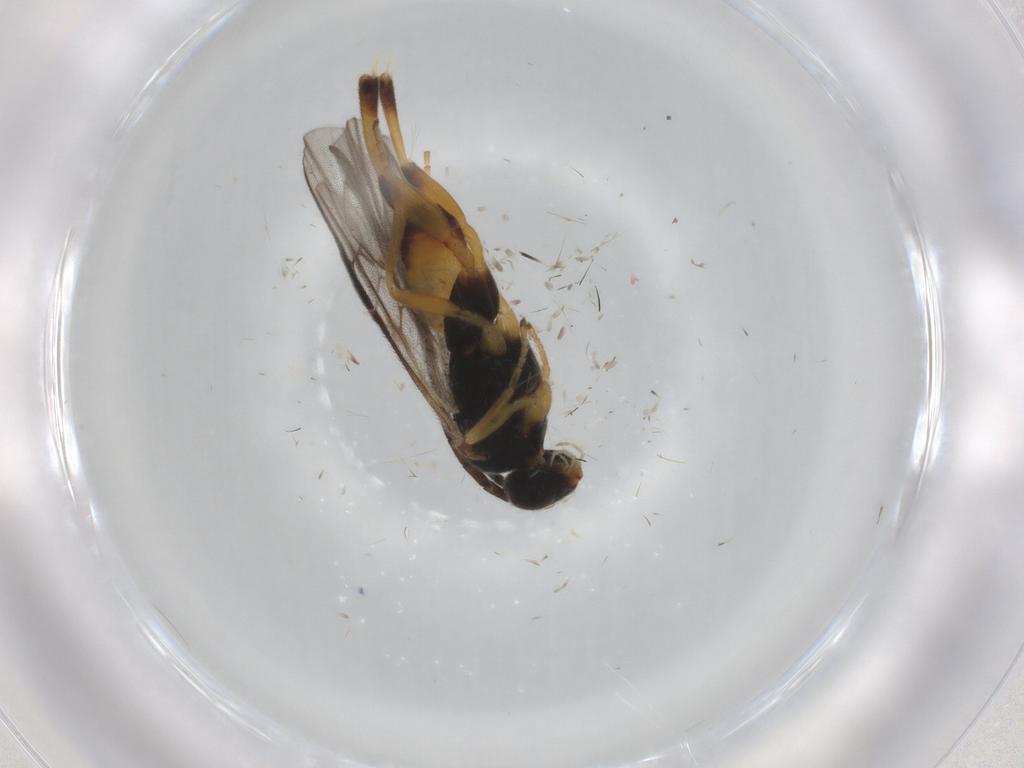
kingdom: Animalia
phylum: Arthropoda
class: Insecta
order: Hymenoptera
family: Braconidae
